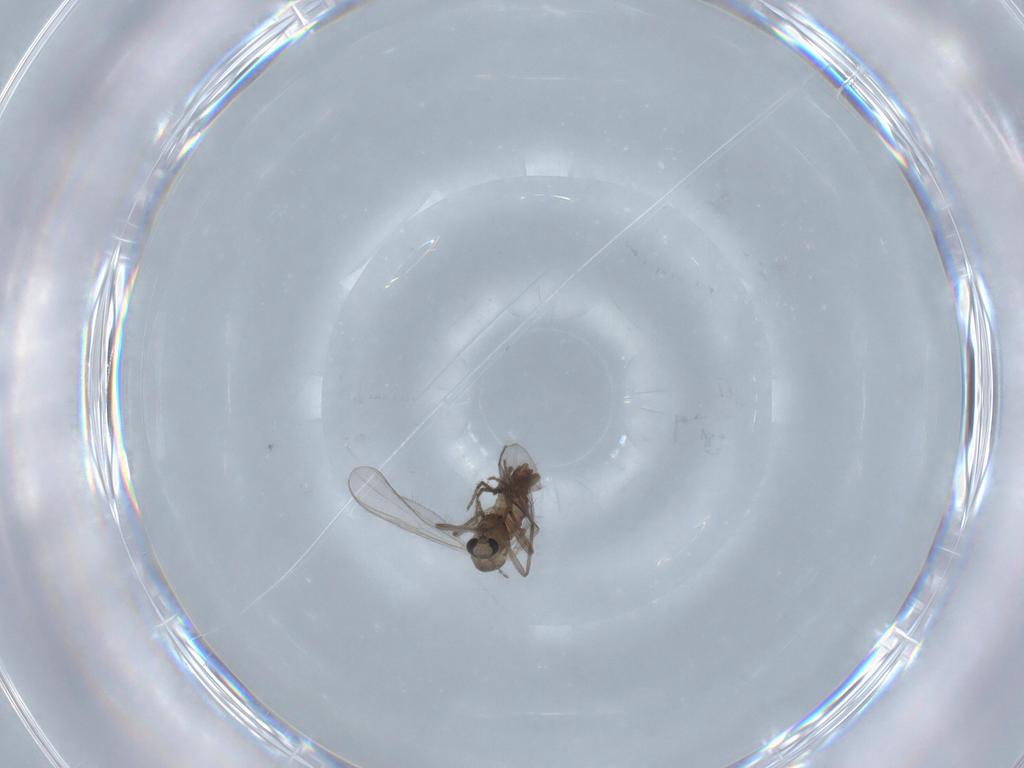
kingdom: Animalia
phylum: Arthropoda
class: Insecta
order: Diptera
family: Chironomidae
